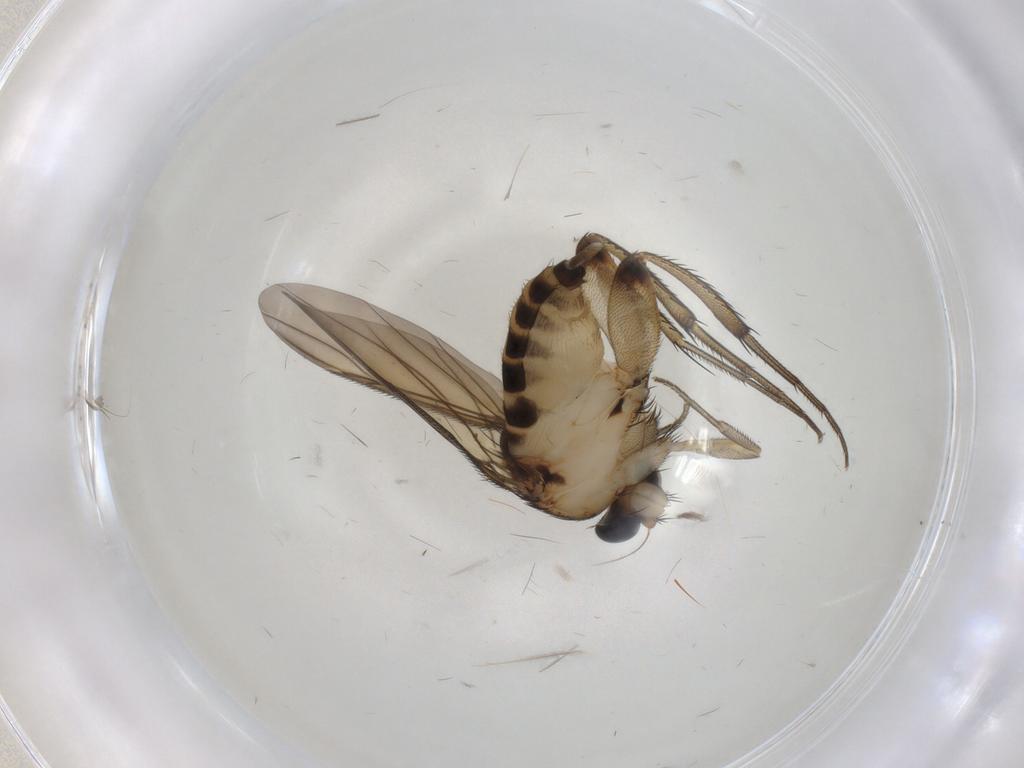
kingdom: Animalia
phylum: Arthropoda
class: Insecta
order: Diptera
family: Phoridae
